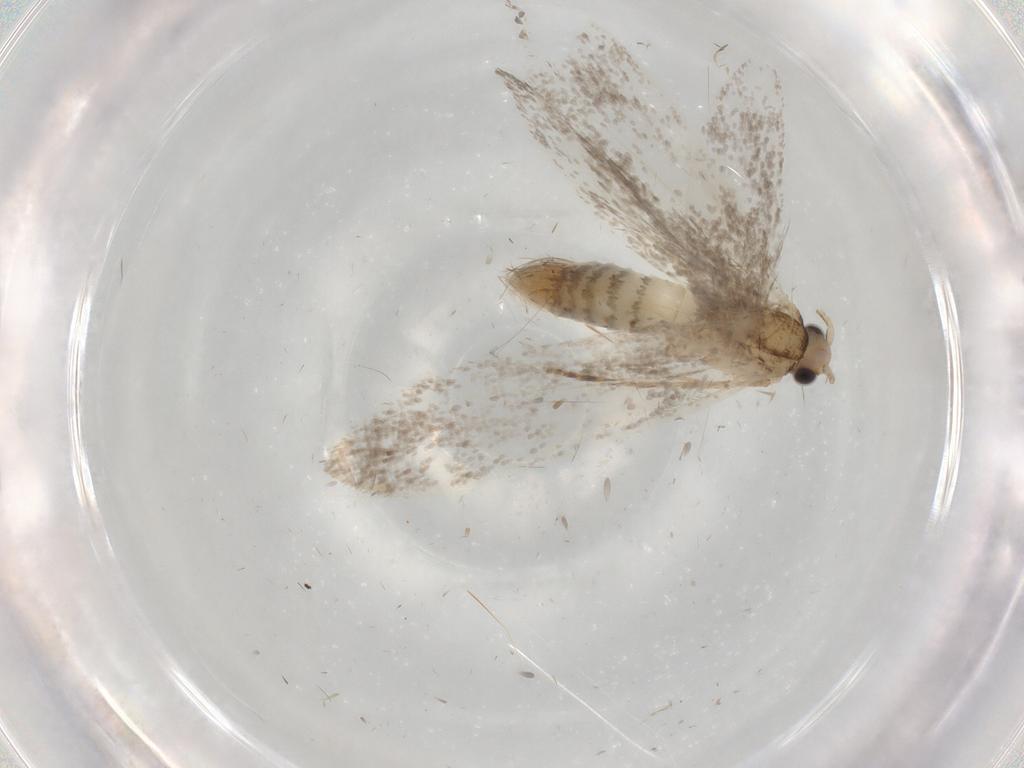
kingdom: Animalia
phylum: Arthropoda
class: Insecta
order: Lepidoptera
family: Tineidae
